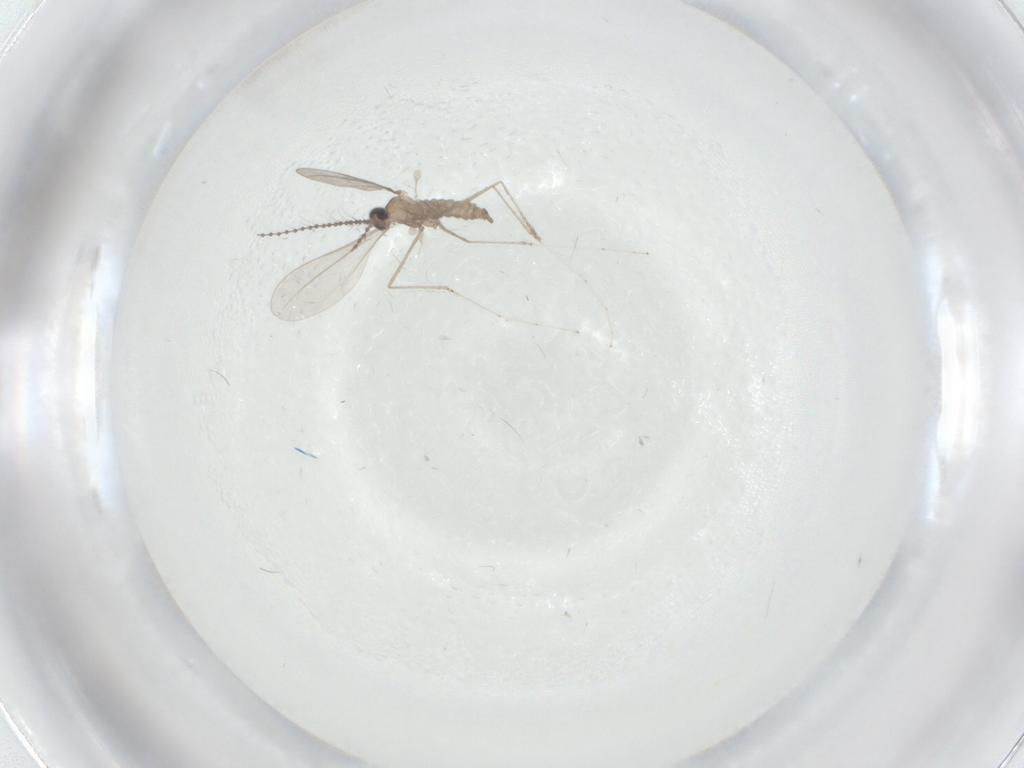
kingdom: Animalia
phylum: Arthropoda
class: Insecta
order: Diptera
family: Cecidomyiidae
